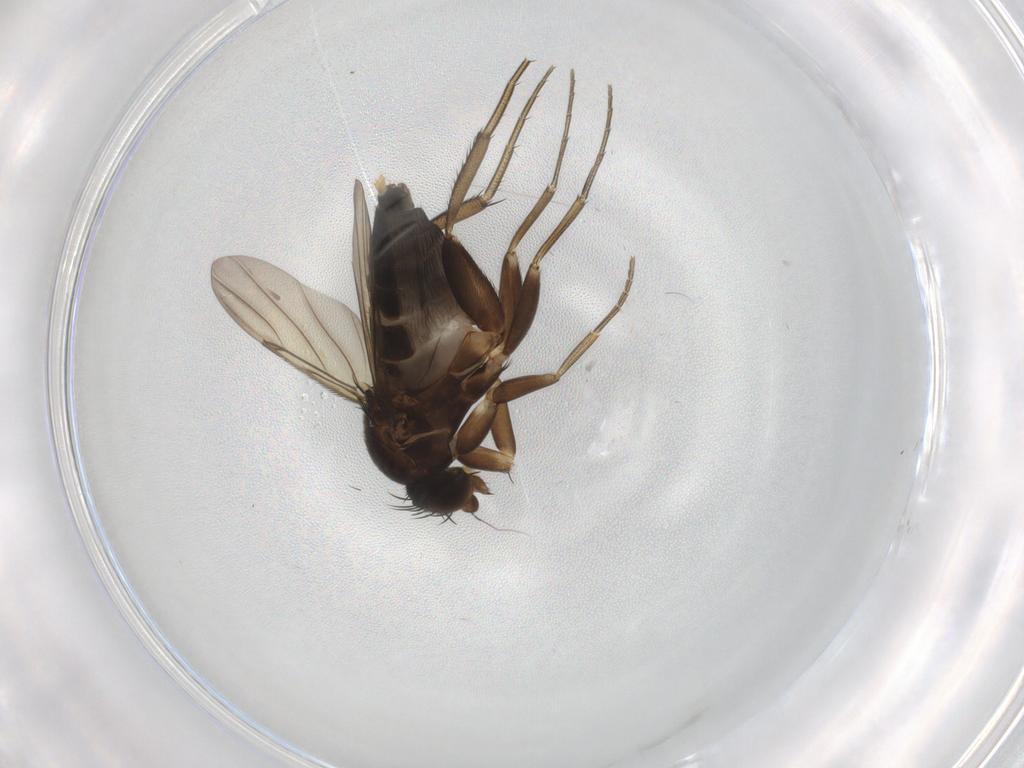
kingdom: Animalia
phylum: Arthropoda
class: Insecta
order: Diptera
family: Phoridae
